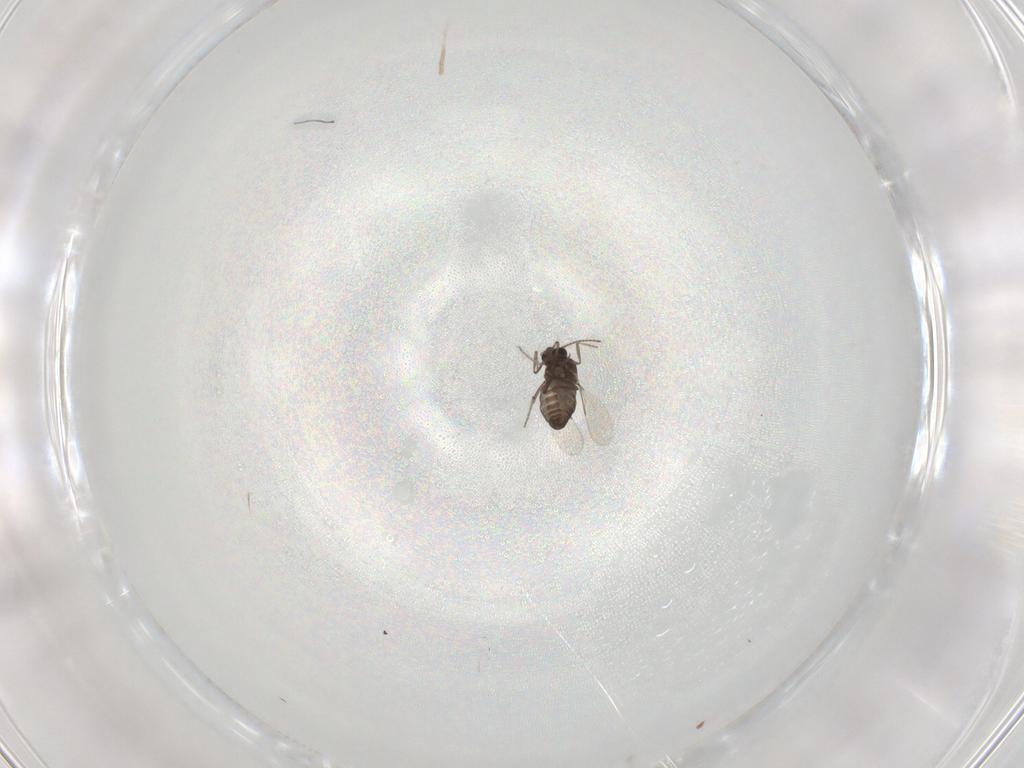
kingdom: Animalia
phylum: Arthropoda
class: Insecta
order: Diptera
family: Ceratopogonidae
